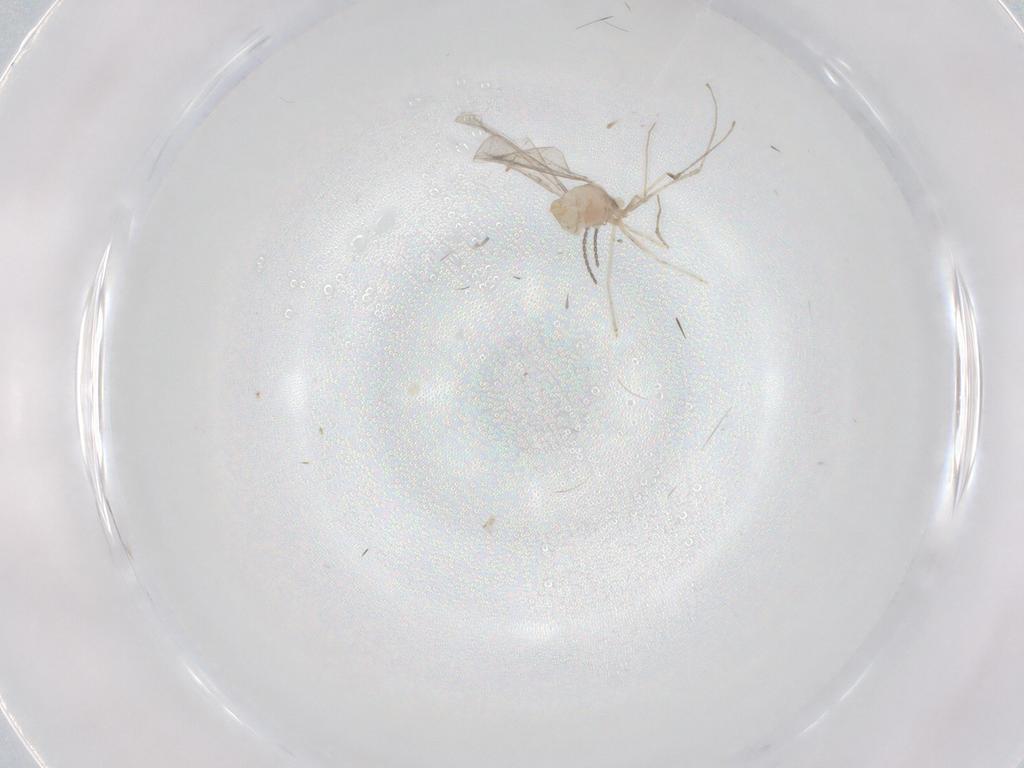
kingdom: Animalia
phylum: Arthropoda
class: Insecta
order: Diptera
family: Cecidomyiidae
